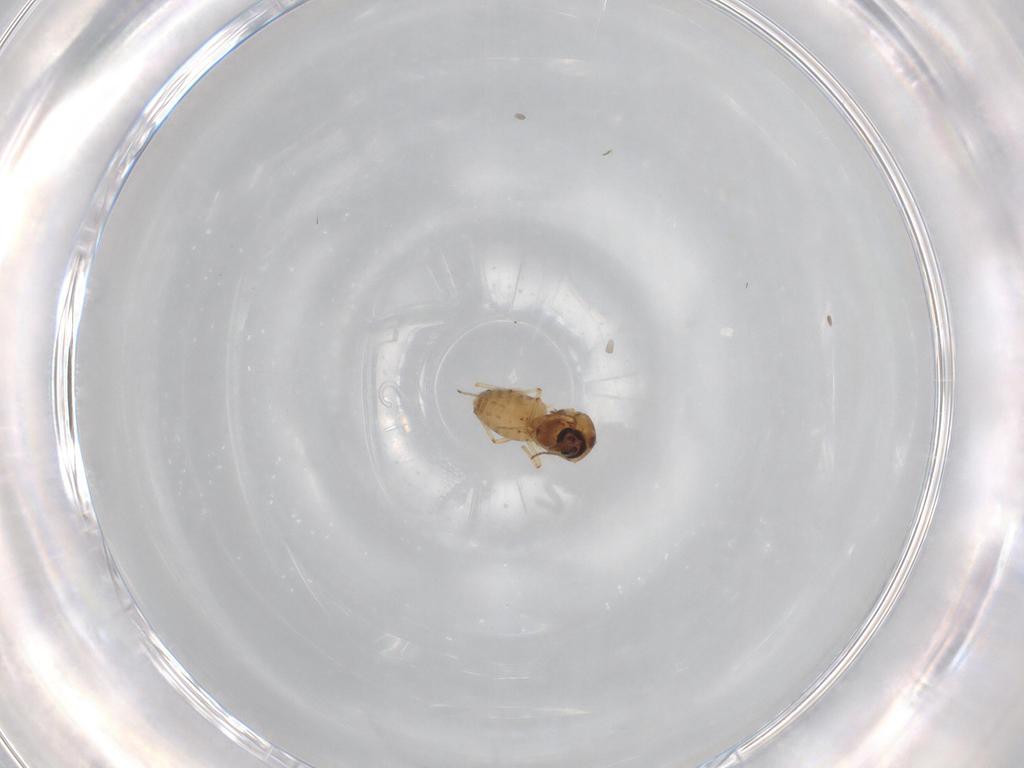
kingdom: Animalia
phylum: Arthropoda
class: Insecta
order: Diptera
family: Ceratopogonidae
